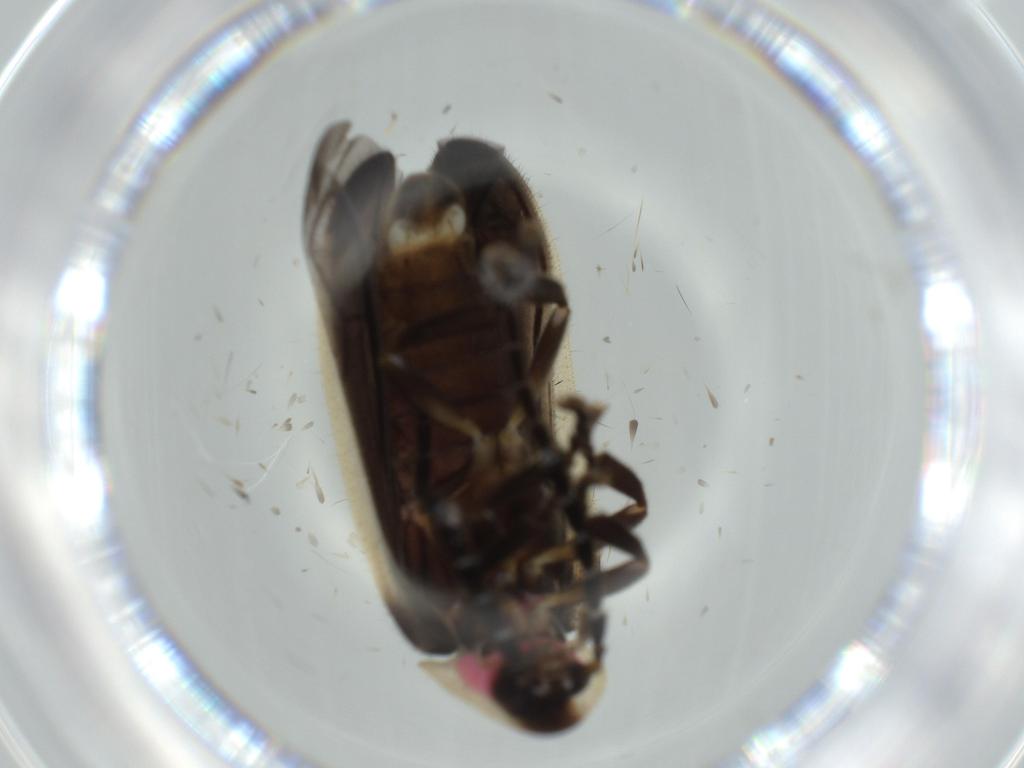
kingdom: Animalia
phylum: Arthropoda
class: Insecta
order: Coleoptera
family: Lampyridae
